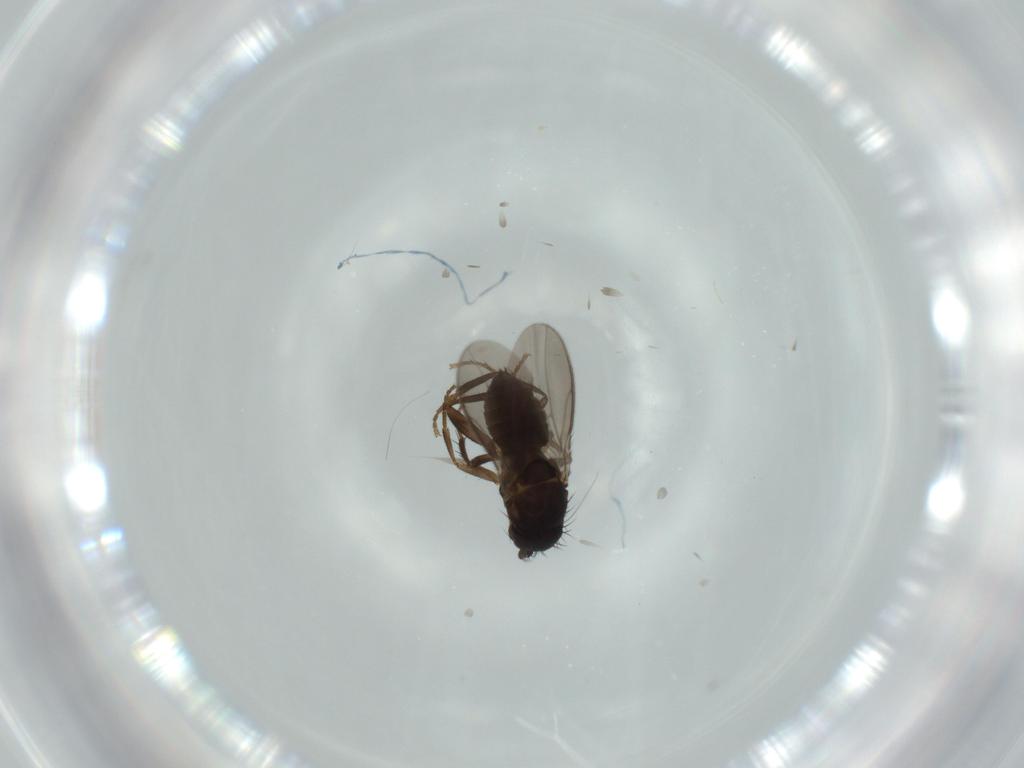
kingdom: Animalia
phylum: Arthropoda
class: Insecta
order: Diptera
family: Sphaeroceridae
